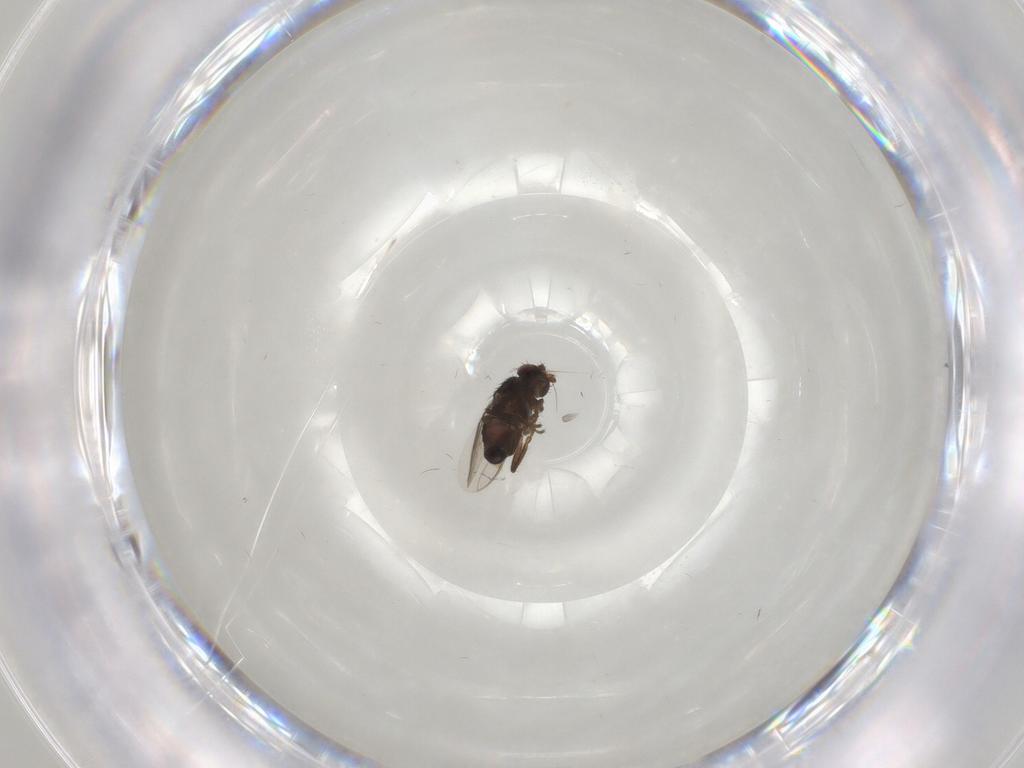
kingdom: Animalia
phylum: Arthropoda
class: Insecta
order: Diptera
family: Sphaeroceridae
